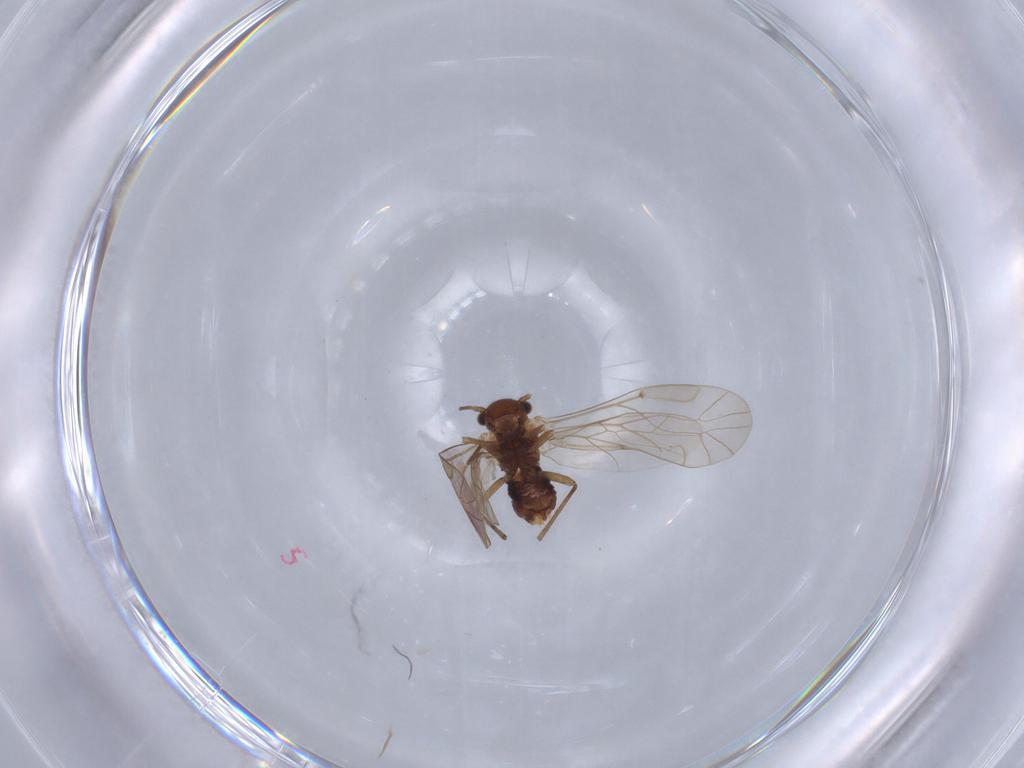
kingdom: Animalia
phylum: Arthropoda
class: Insecta
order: Psocodea
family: Lachesillidae
